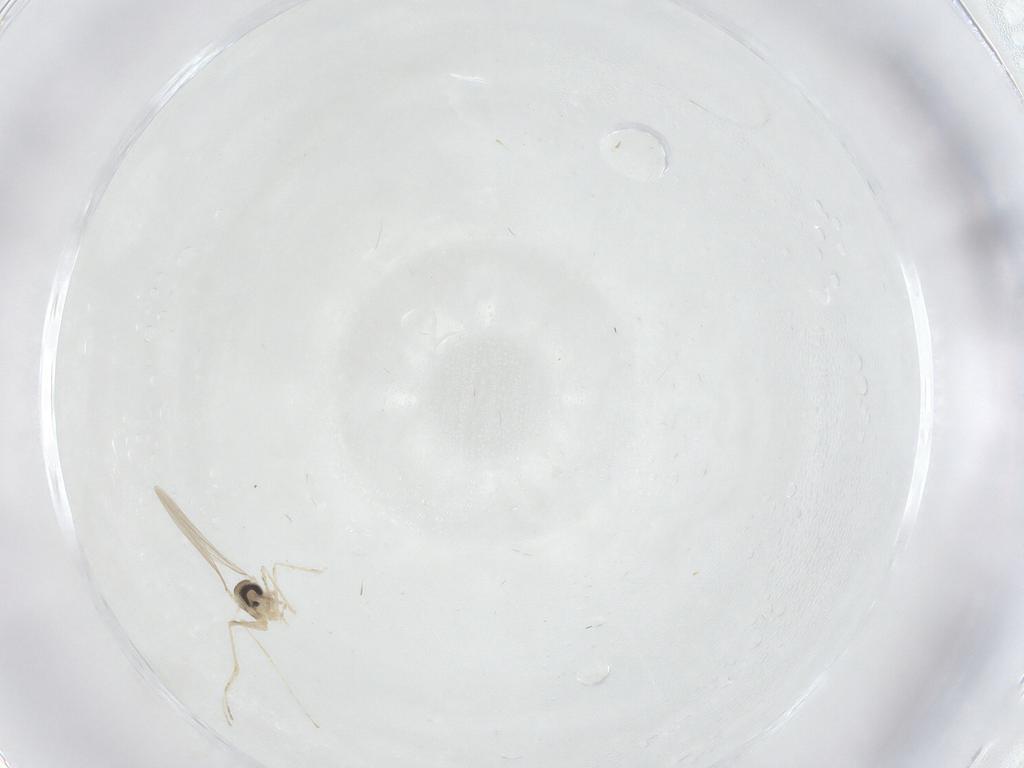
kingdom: Animalia
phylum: Arthropoda
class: Insecta
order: Diptera
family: Cecidomyiidae
